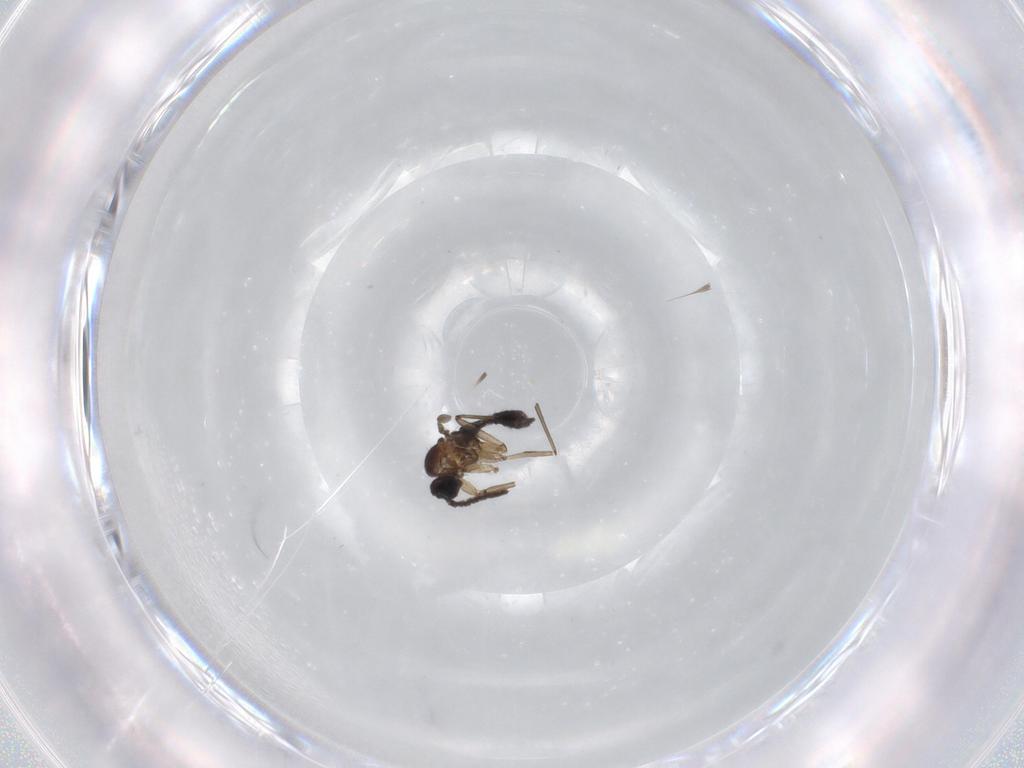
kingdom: Animalia
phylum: Arthropoda
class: Insecta
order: Diptera
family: Sciaridae
